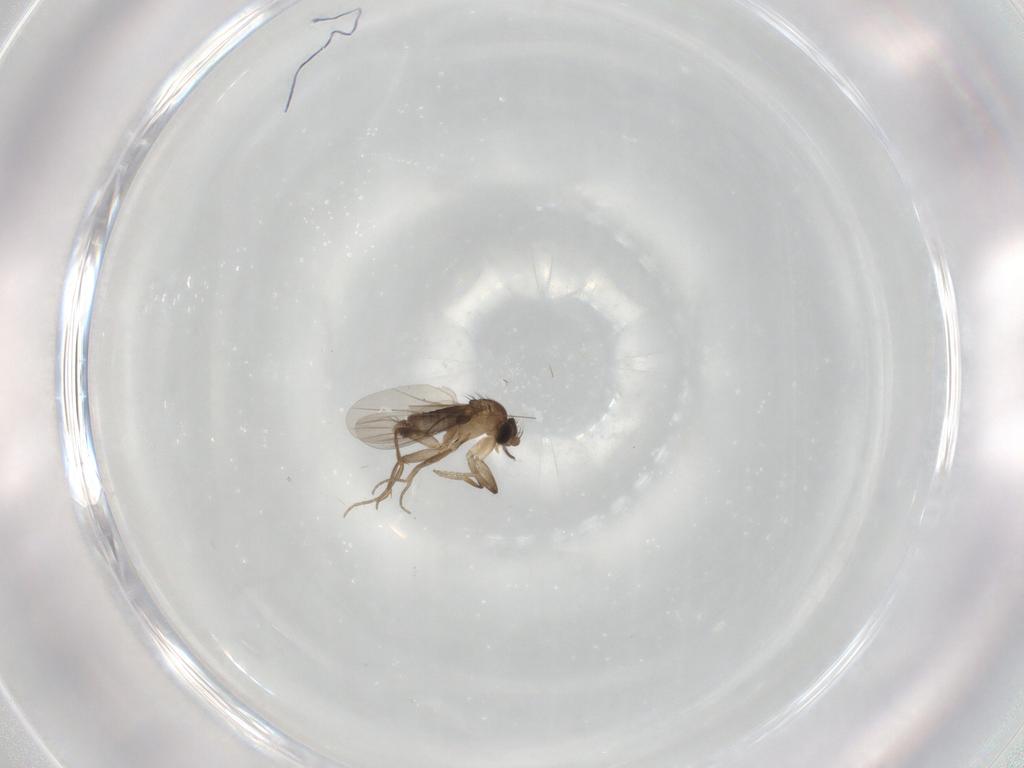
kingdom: Animalia
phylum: Arthropoda
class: Insecta
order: Diptera
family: Phoridae
